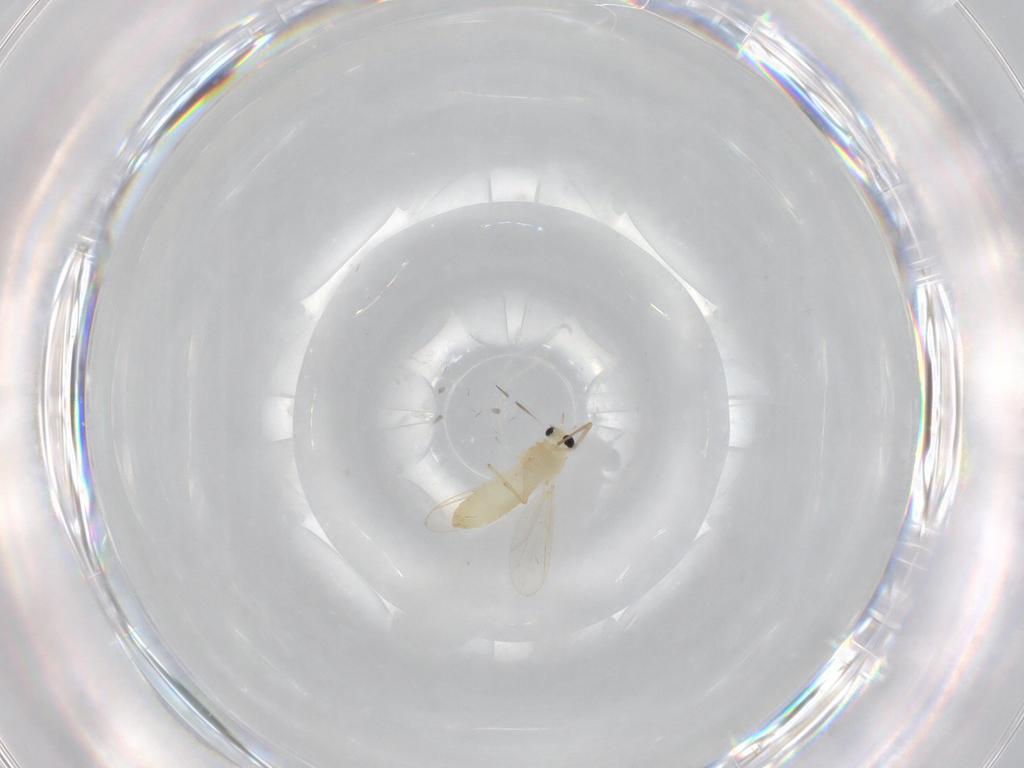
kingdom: Animalia
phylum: Arthropoda
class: Insecta
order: Diptera
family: Chironomidae
